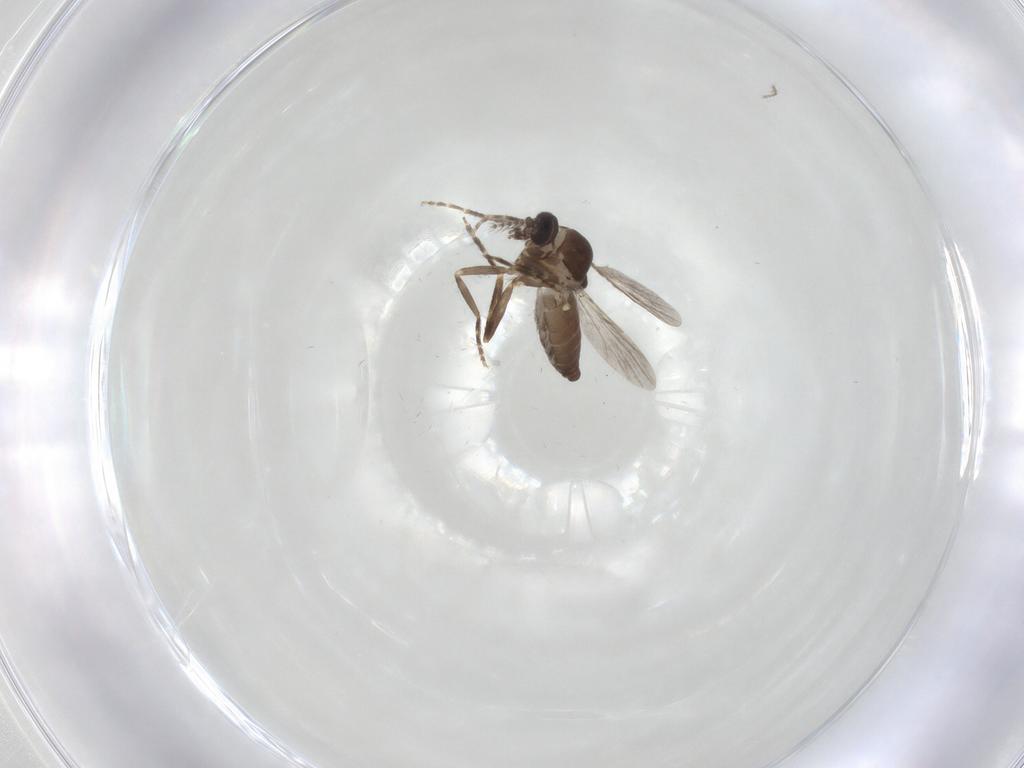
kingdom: Animalia
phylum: Arthropoda
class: Insecta
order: Diptera
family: Ceratopogonidae
